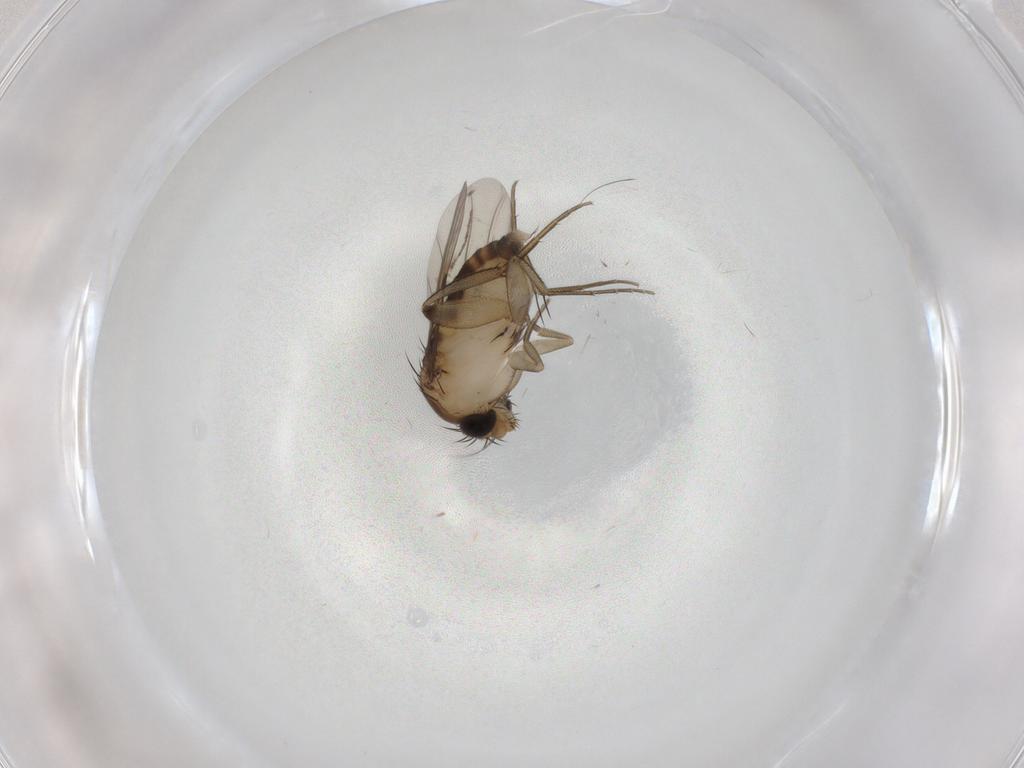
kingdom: Animalia
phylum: Arthropoda
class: Insecta
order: Diptera
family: Phoridae
